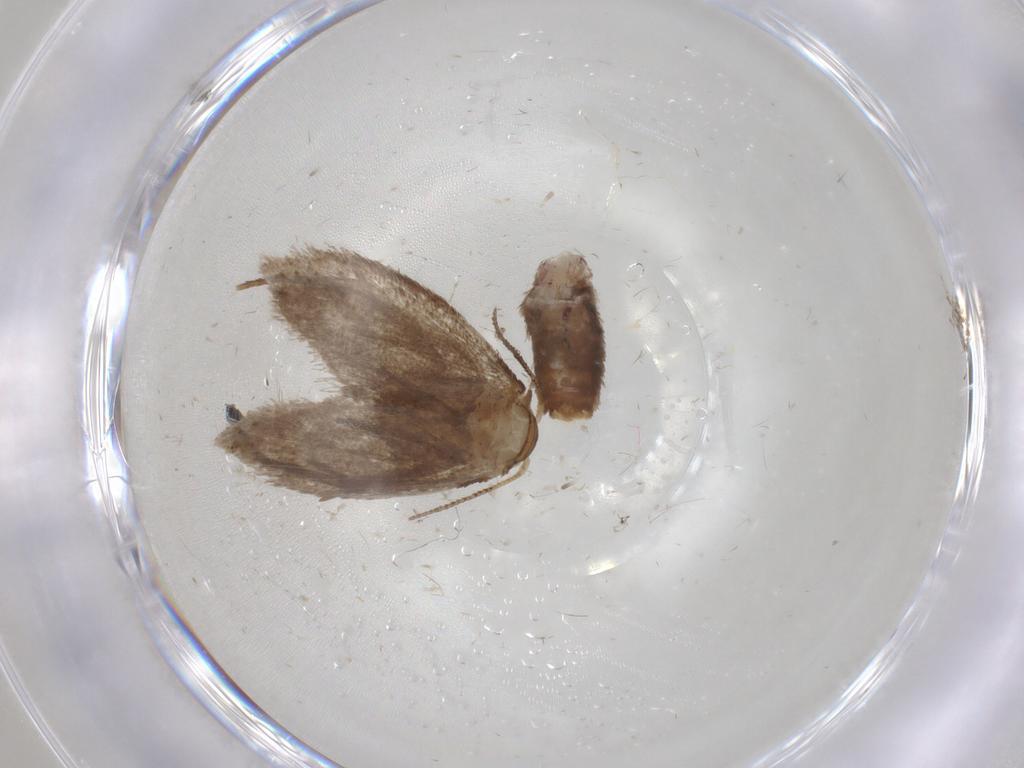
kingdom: Animalia
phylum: Arthropoda
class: Insecta
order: Lepidoptera
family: Dryadaulidae
